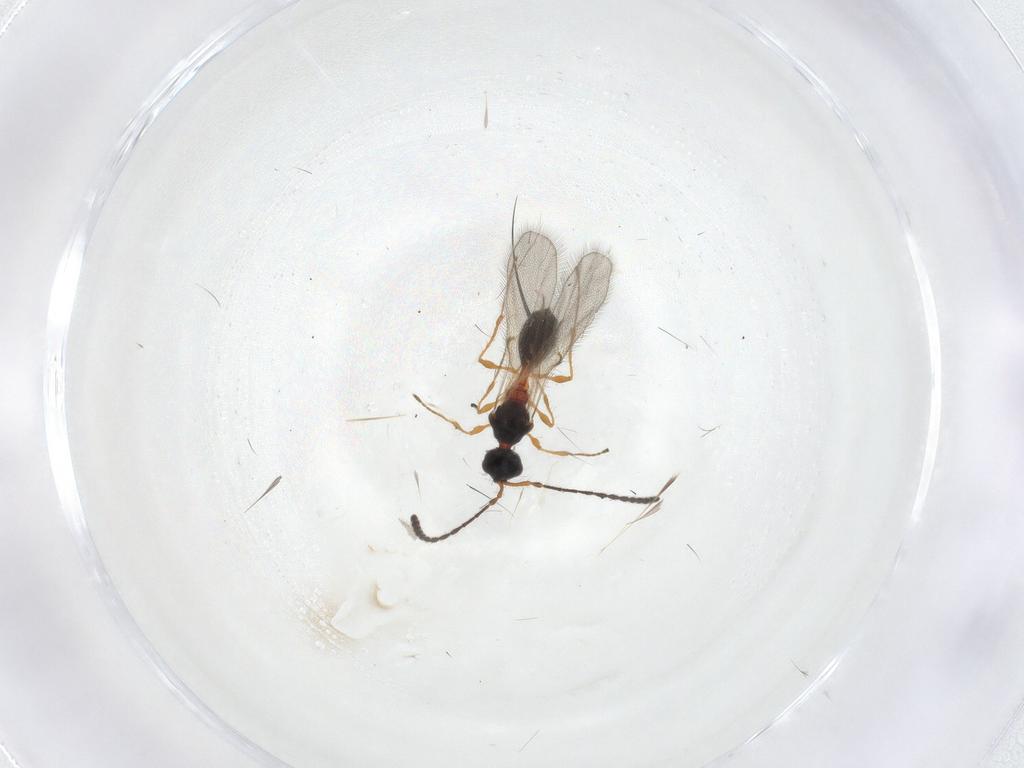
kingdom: Animalia
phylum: Arthropoda
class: Insecta
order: Hymenoptera
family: Diapriidae
